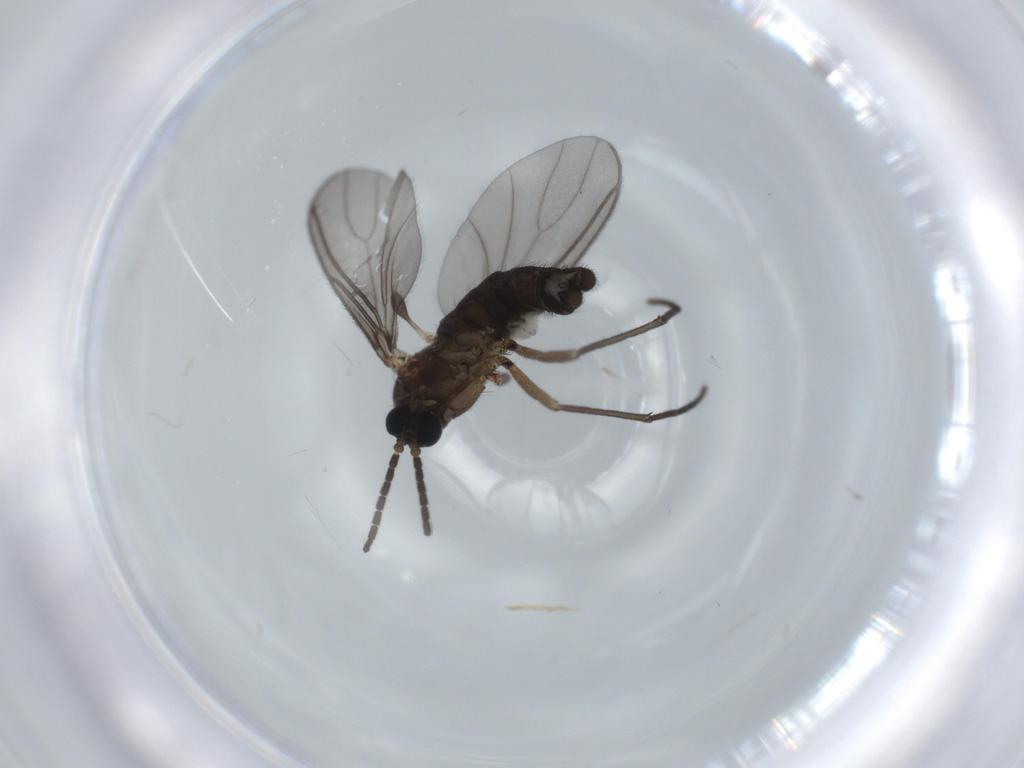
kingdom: Animalia
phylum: Arthropoda
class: Insecta
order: Diptera
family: Sciaridae
